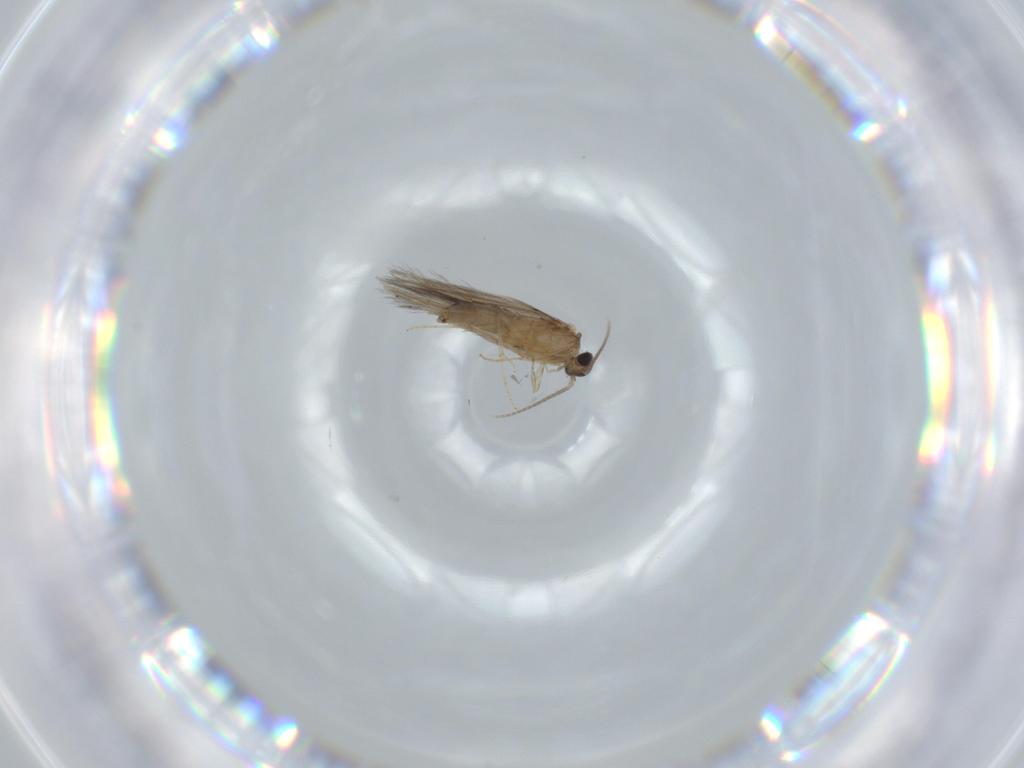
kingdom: Animalia
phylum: Arthropoda
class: Insecta
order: Trichoptera
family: Hydroptilidae
